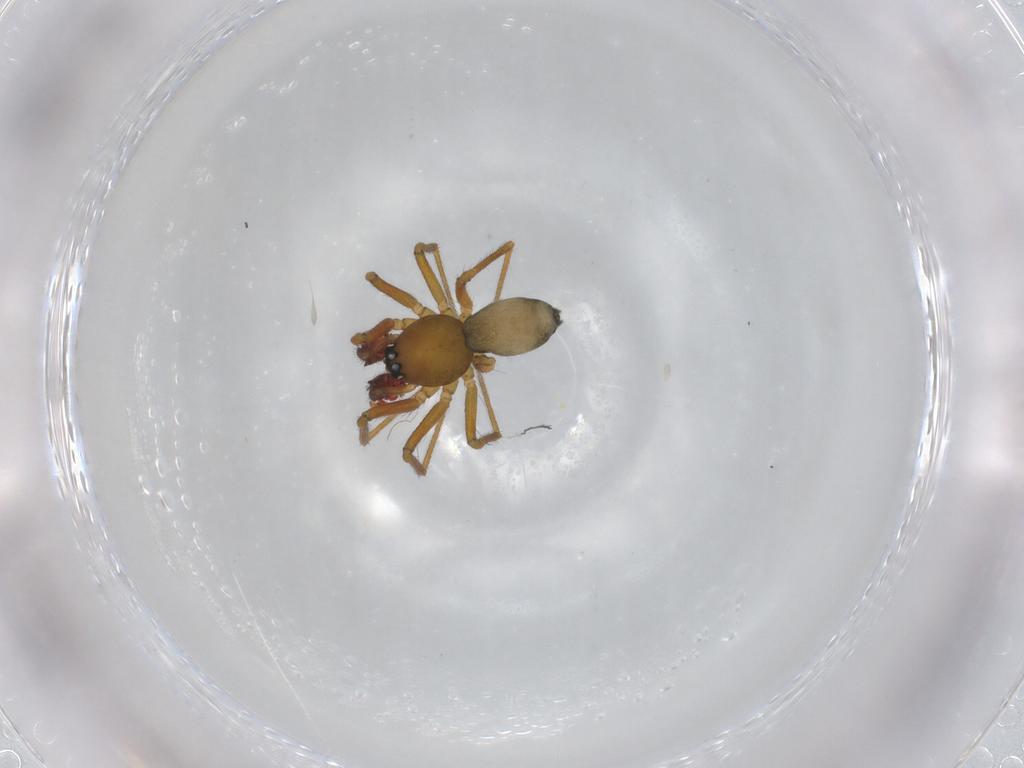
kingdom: Animalia
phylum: Arthropoda
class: Arachnida
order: Araneae
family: Linyphiidae
